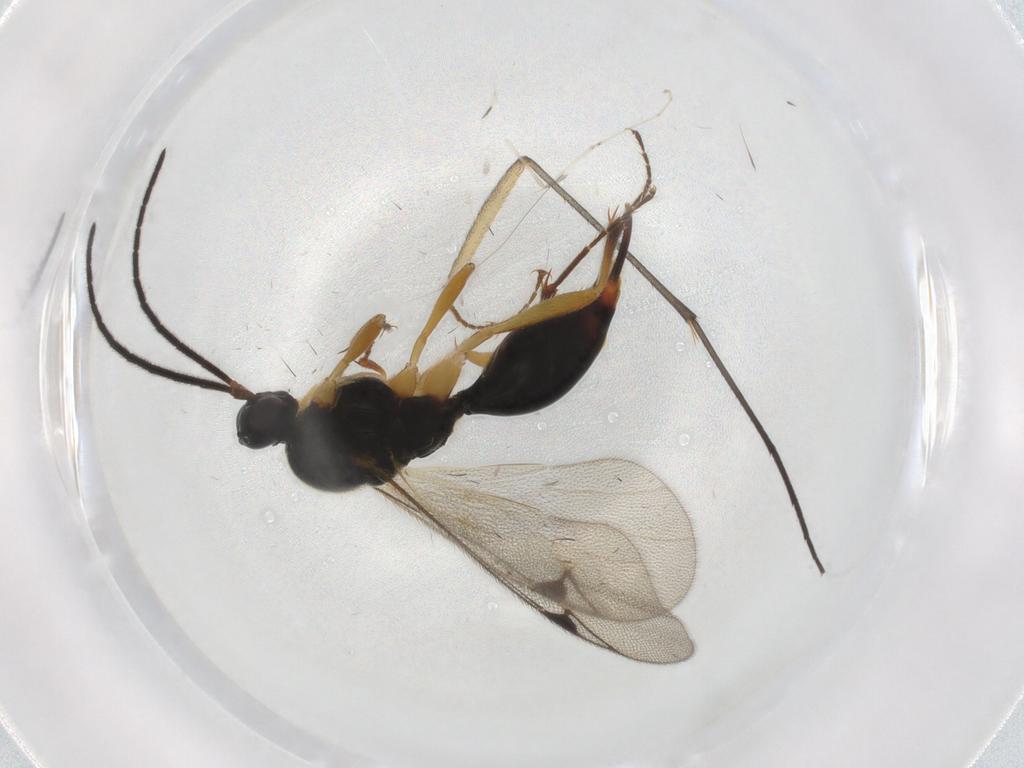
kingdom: Animalia
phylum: Arthropoda
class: Insecta
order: Hymenoptera
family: Proctotrupidae
